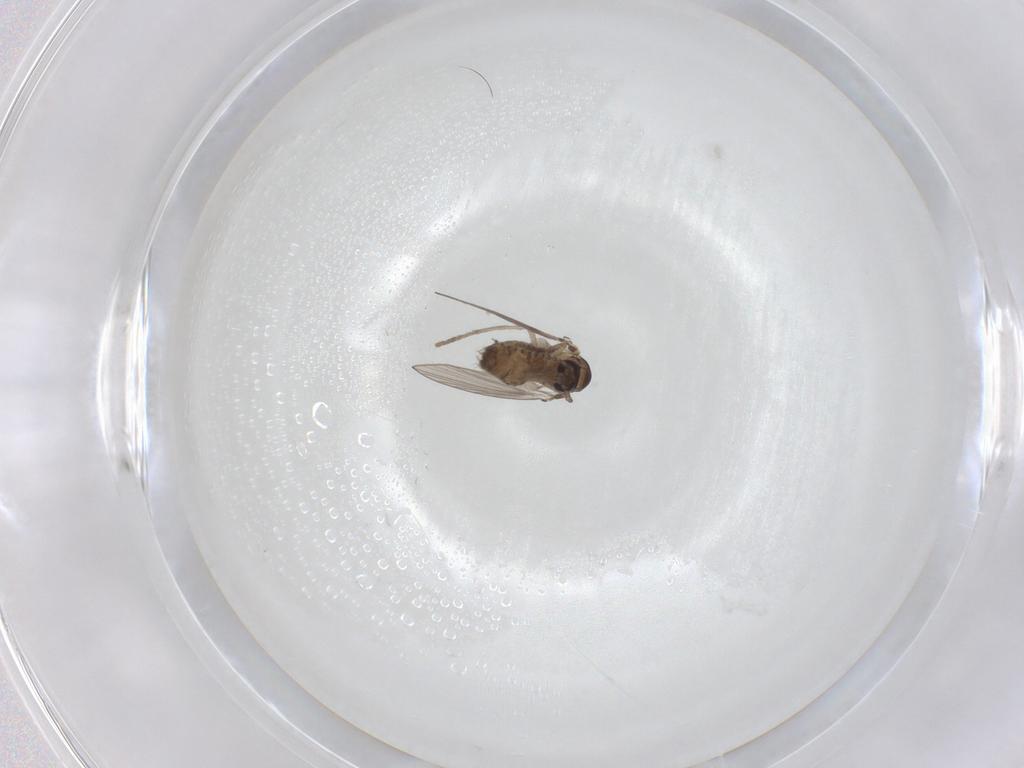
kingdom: Animalia
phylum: Arthropoda
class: Insecta
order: Diptera
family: Psychodidae
